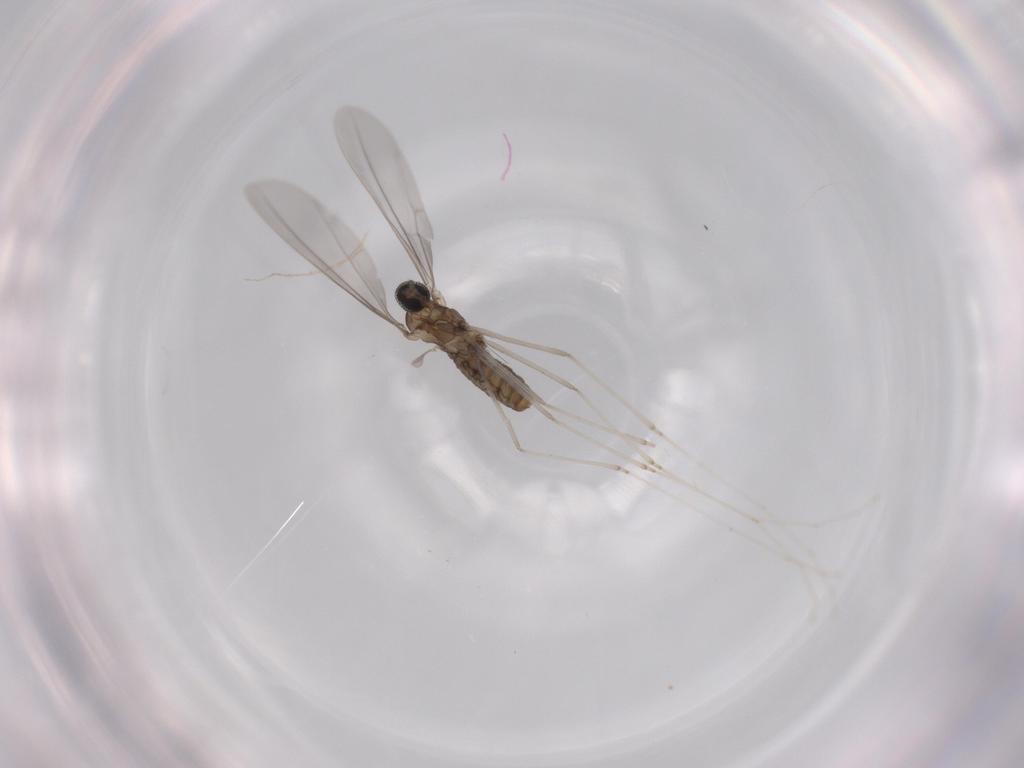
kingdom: Animalia
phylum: Arthropoda
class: Insecta
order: Diptera
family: Cecidomyiidae
